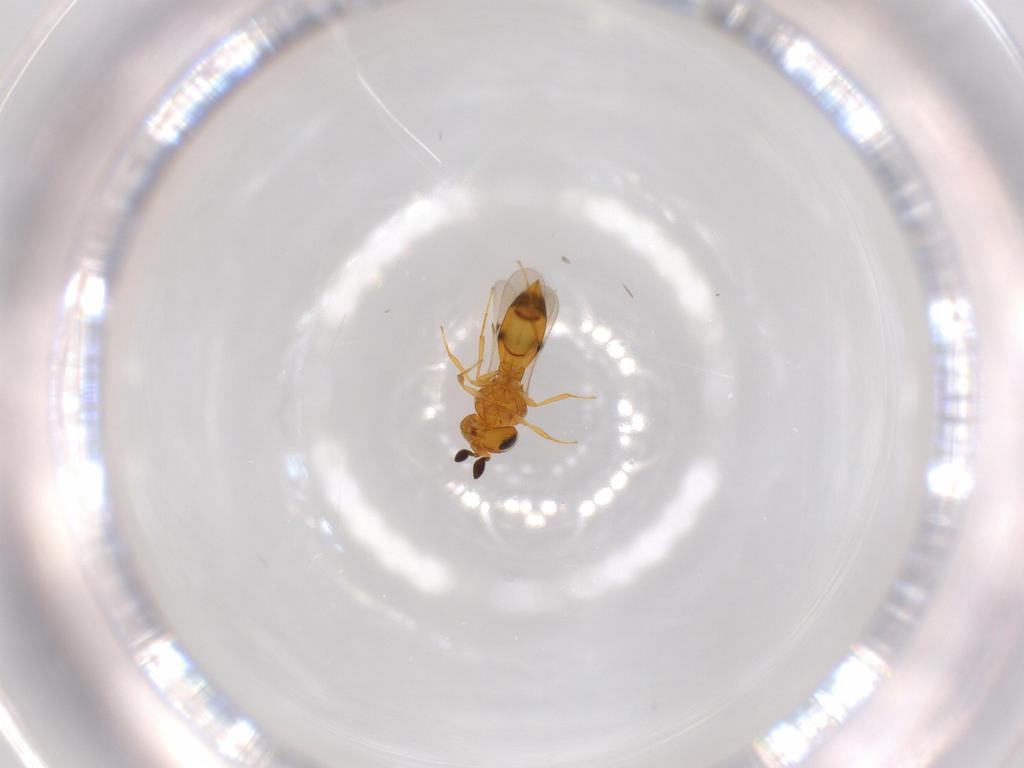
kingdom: Animalia
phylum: Arthropoda
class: Insecta
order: Hymenoptera
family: Scelionidae
